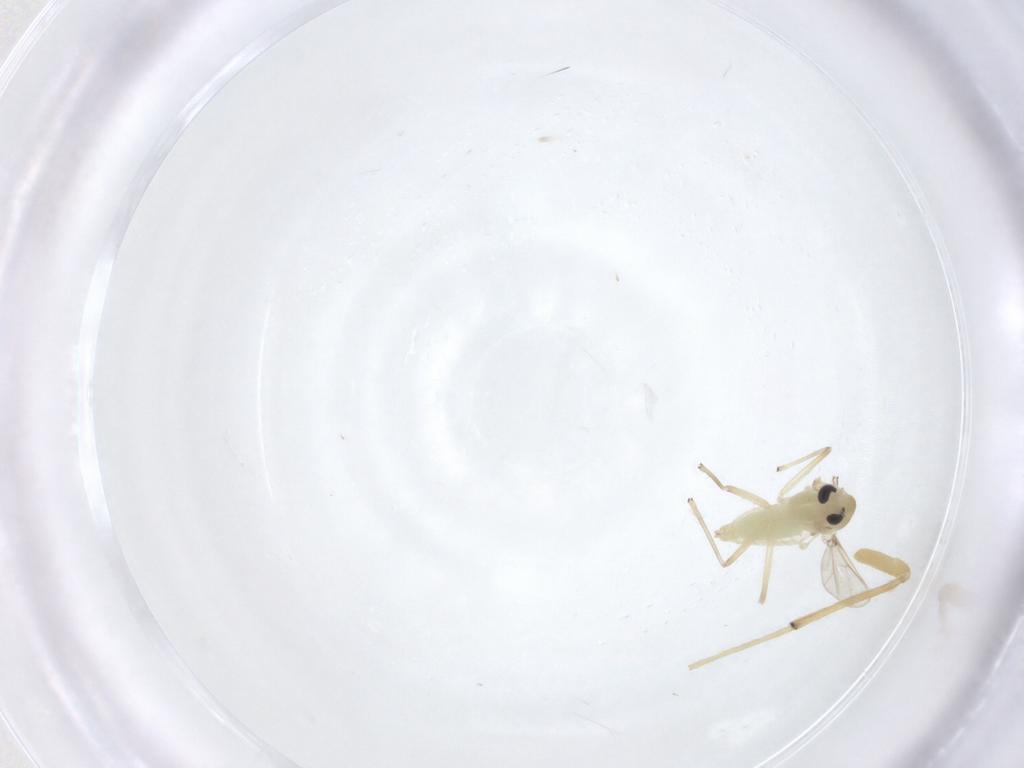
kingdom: Animalia
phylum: Arthropoda
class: Insecta
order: Diptera
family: Chironomidae
